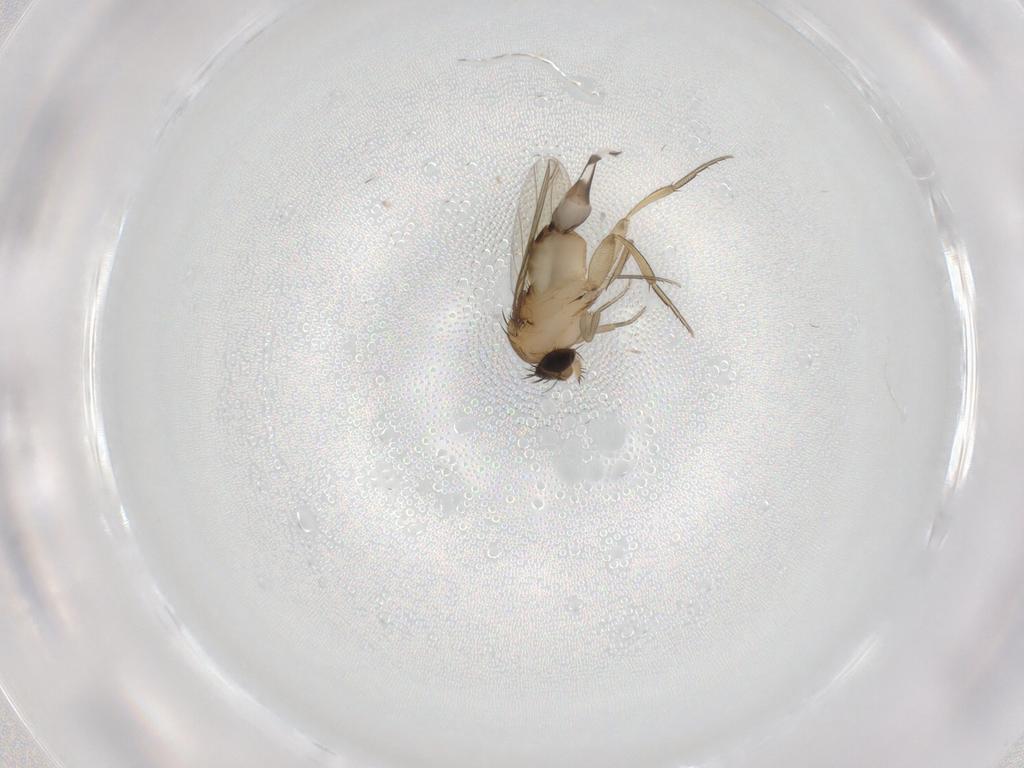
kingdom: Animalia
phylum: Arthropoda
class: Insecta
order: Diptera
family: Phoridae
